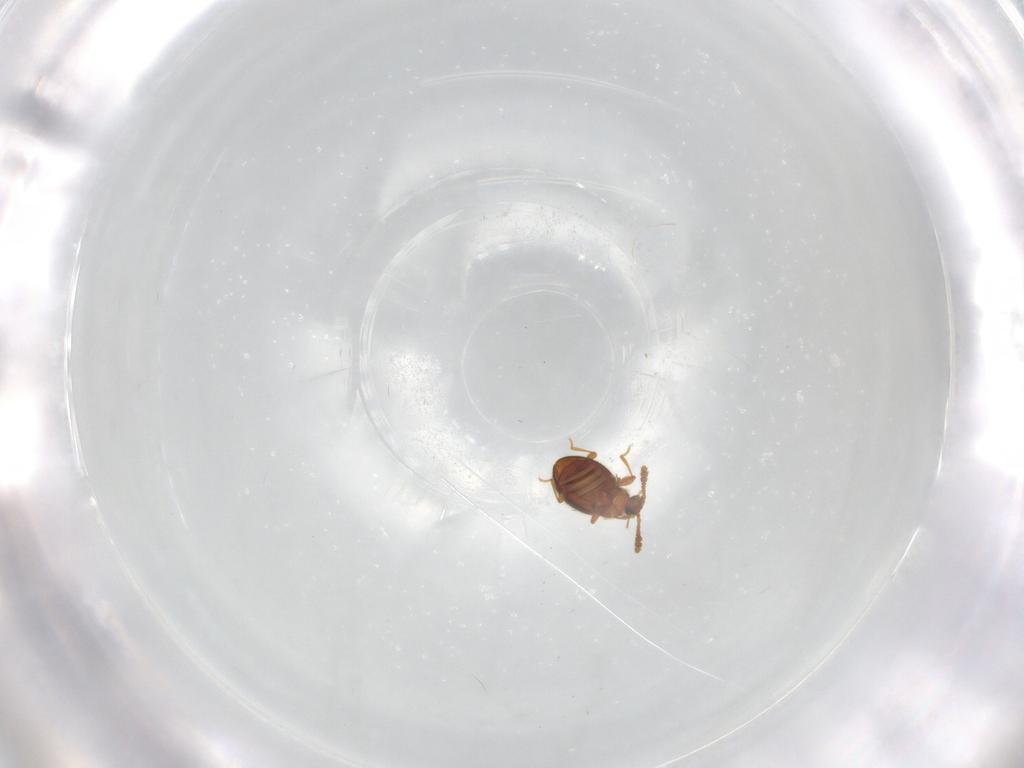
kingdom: Animalia
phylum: Arthropoda
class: Insecta
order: Coleoptera
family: Staphylinidae
